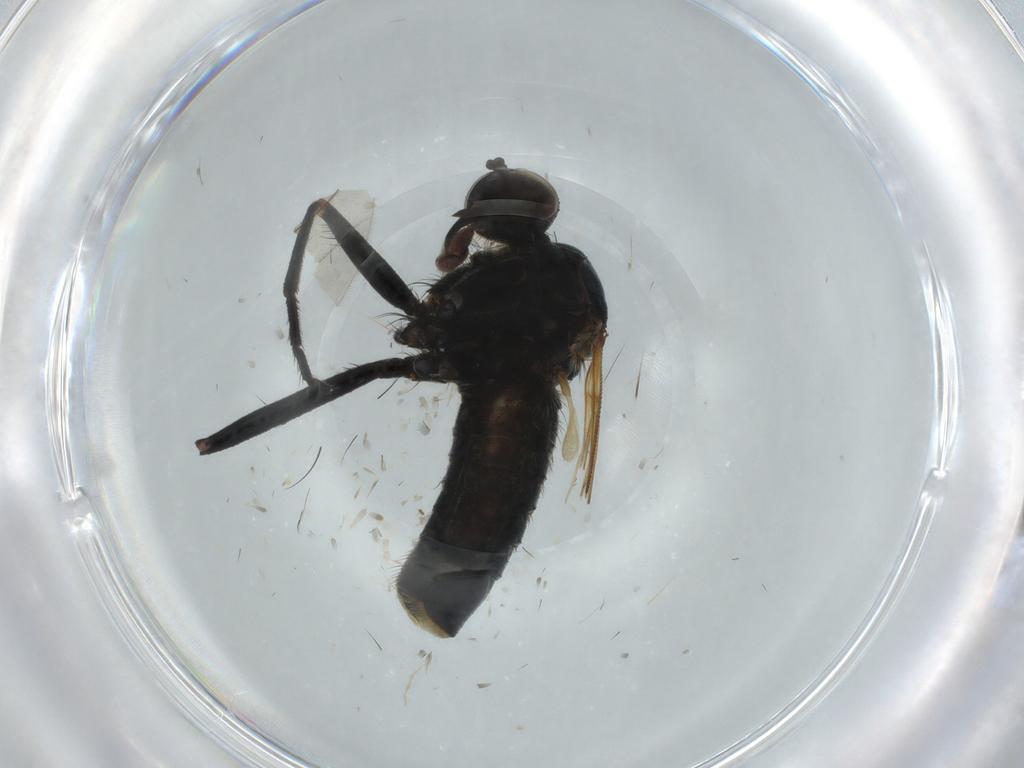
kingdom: Animalia
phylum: Arthropoda
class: Insecta
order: Diptera
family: Brachystomatidae
